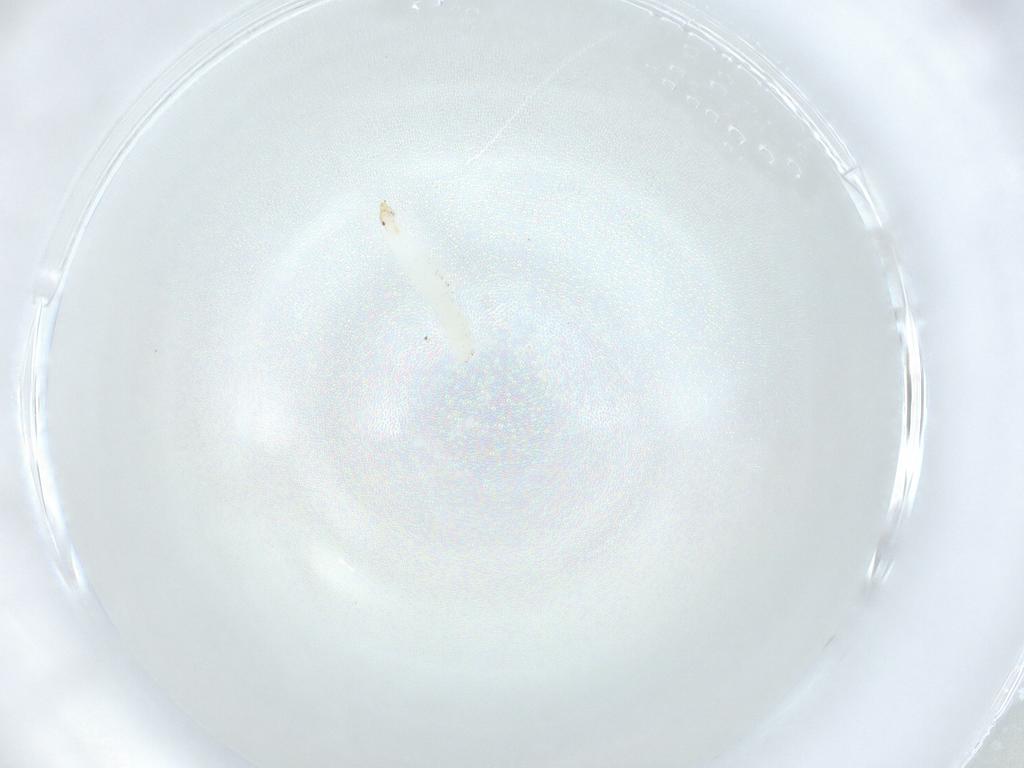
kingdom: Animalia
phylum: Arthropoda
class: Insecta
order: Diptera
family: Stratiomyidae
